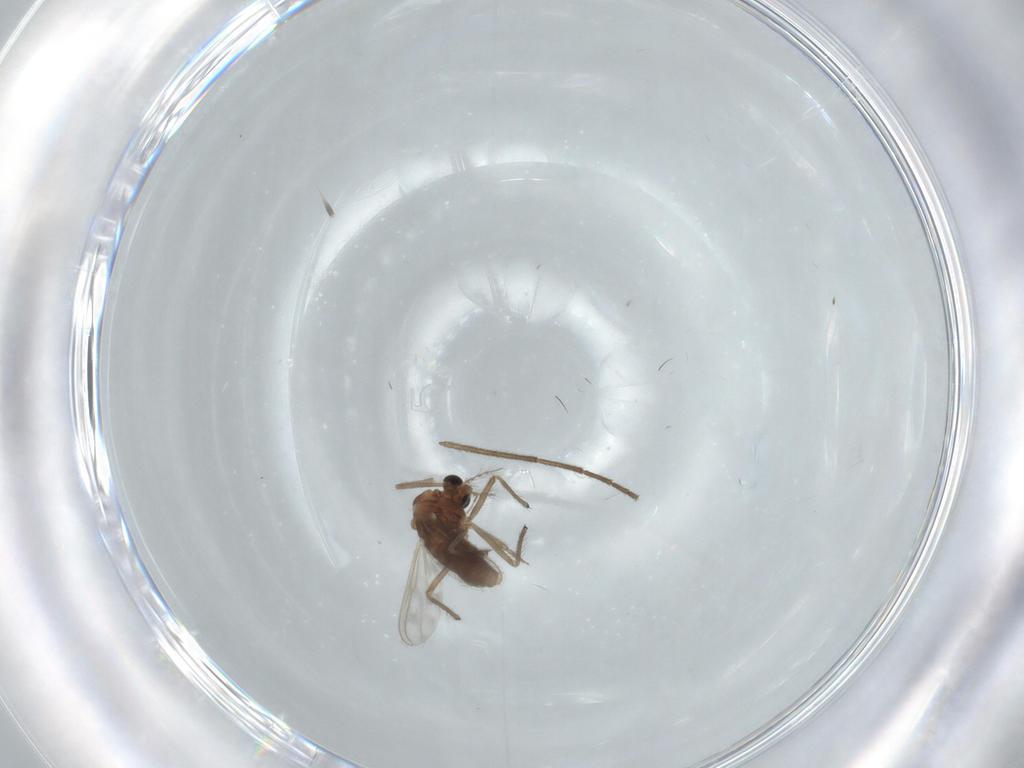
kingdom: Animalia
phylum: Arthropoda
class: Insecta
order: Diptera
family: Chironomidae
